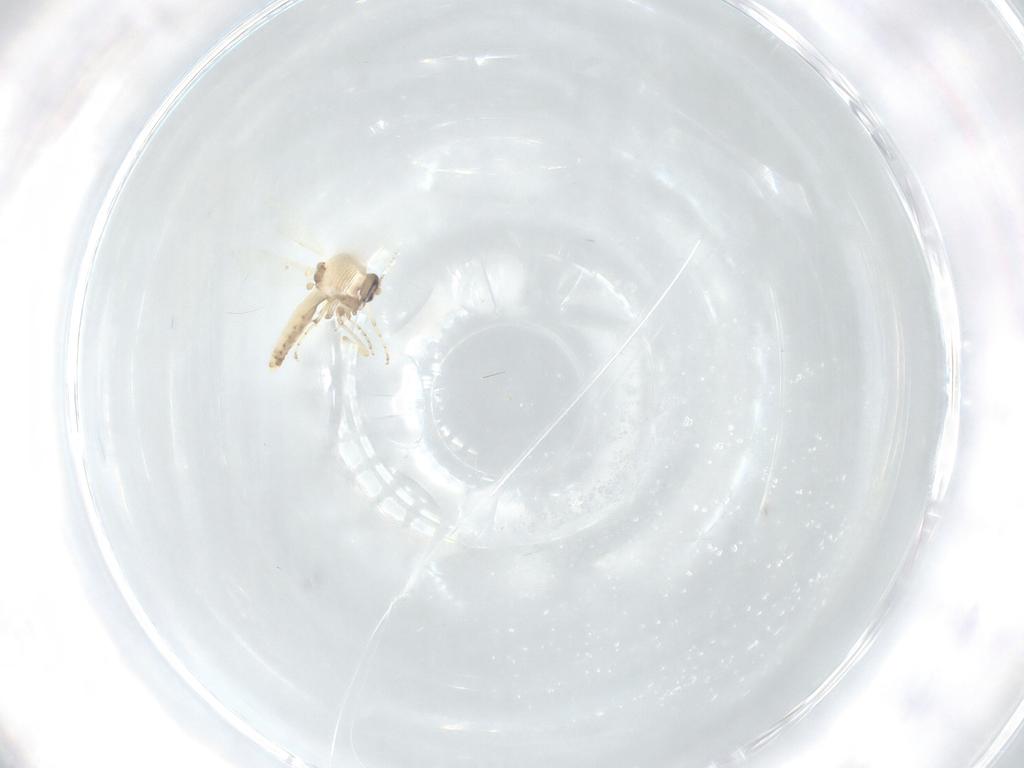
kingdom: Animalia
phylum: Arthropoda
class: Insecta
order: Diptera
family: Ceratopogonidae
